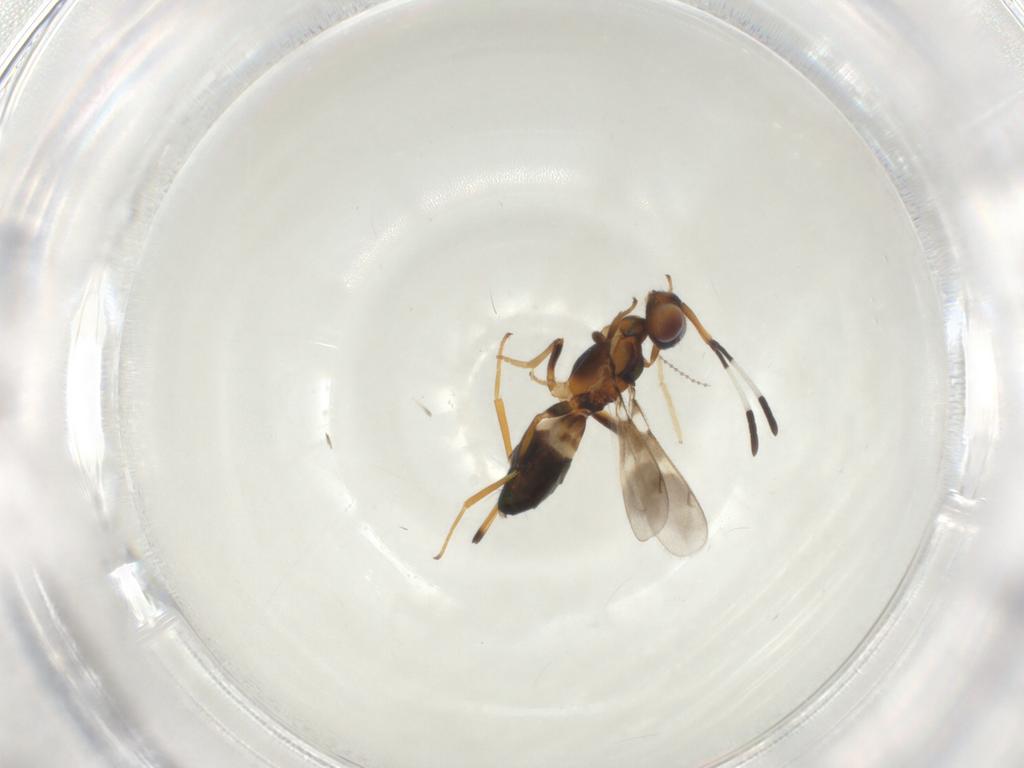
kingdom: Animalia
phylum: Arthropoda
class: Insecta
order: Hymenoptera
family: Eupelmidae
